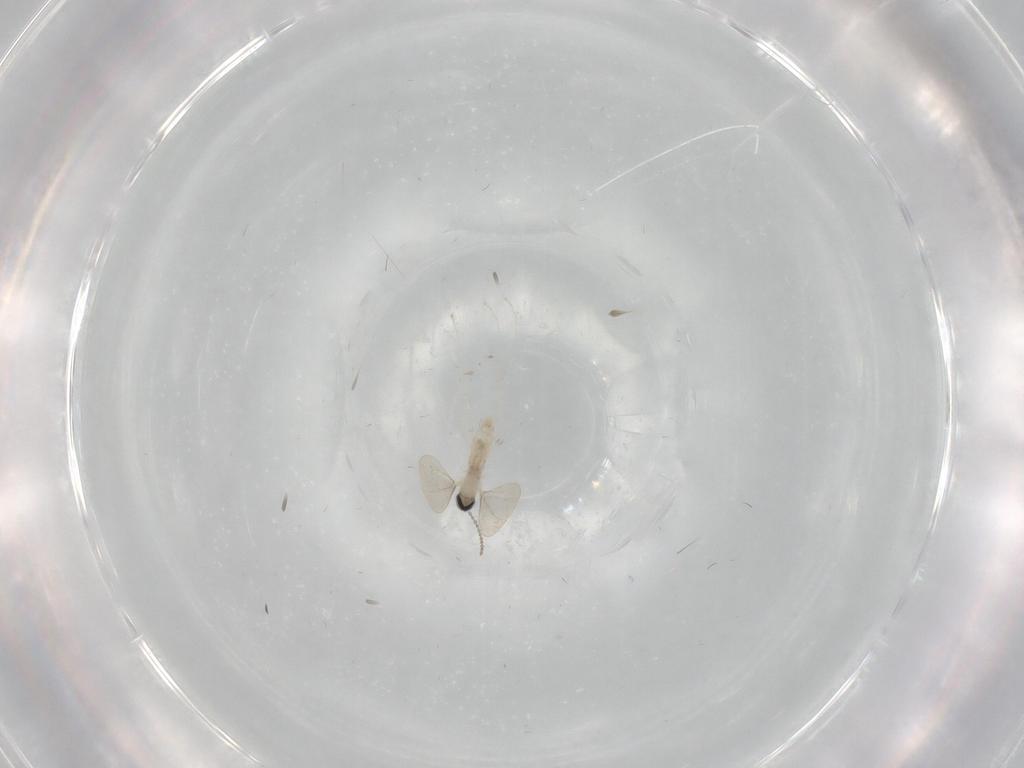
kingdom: Animalia
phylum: Arthropoda
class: Insecta
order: Diptera
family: Cecidomyiidae
